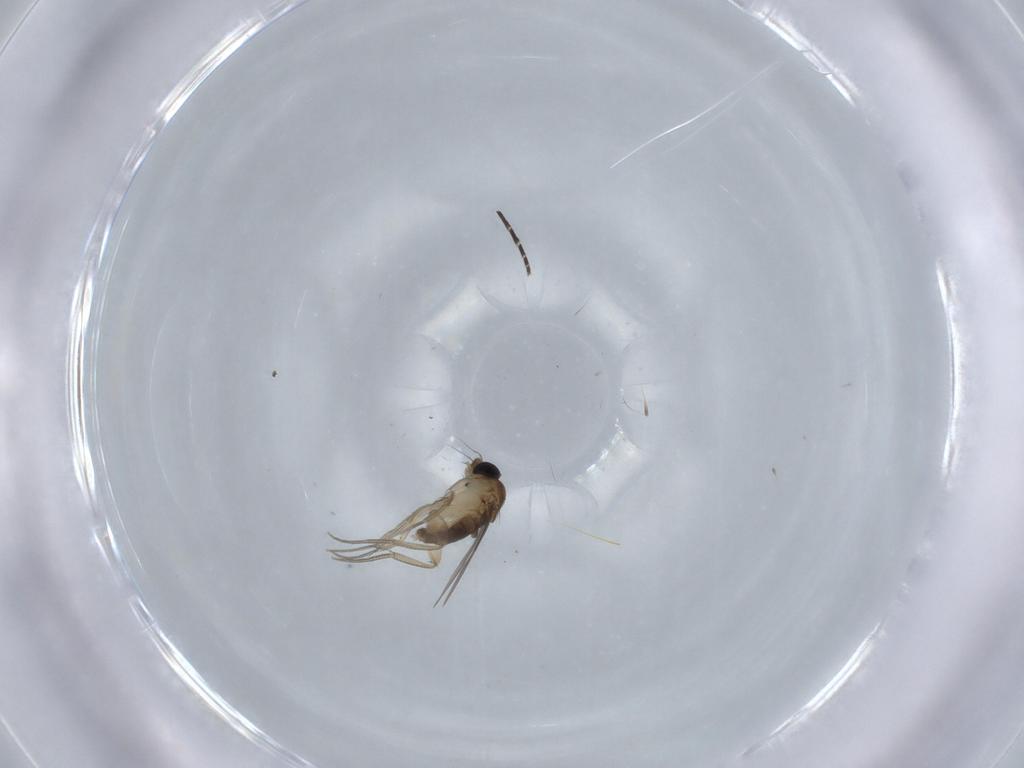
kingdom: Animalia
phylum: Arthropoda
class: Insecta
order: Diptera
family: Phoridae
